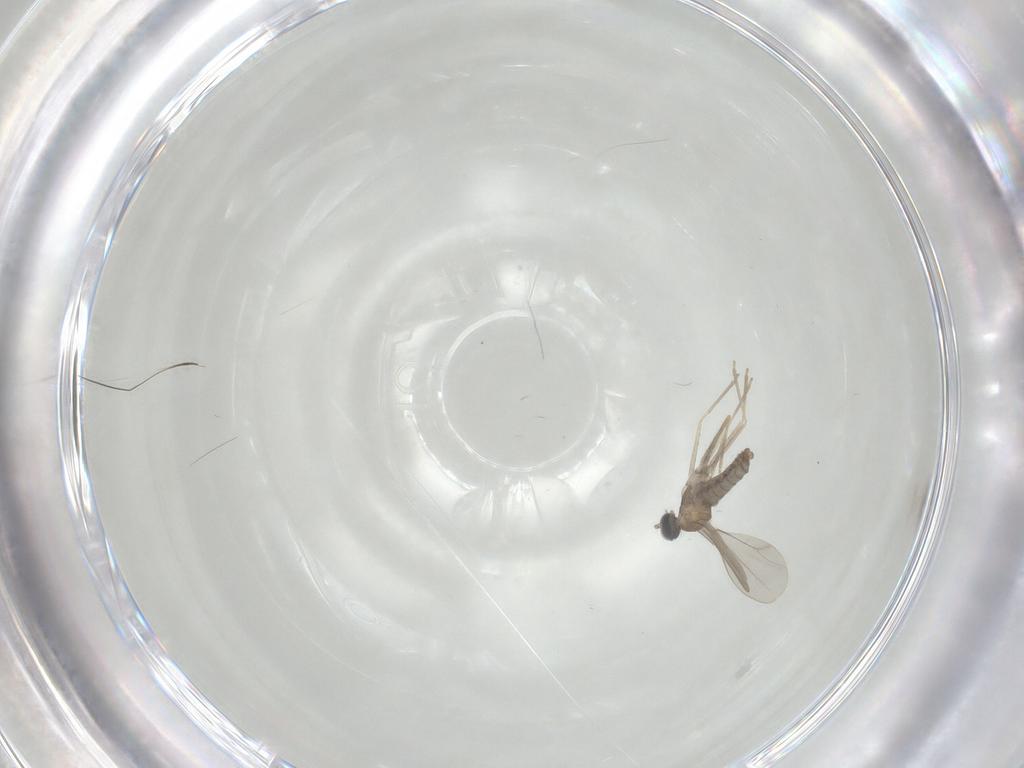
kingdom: Animalia
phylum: Arthropoda
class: Insecta
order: Diptera
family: Cecidomyiidae
